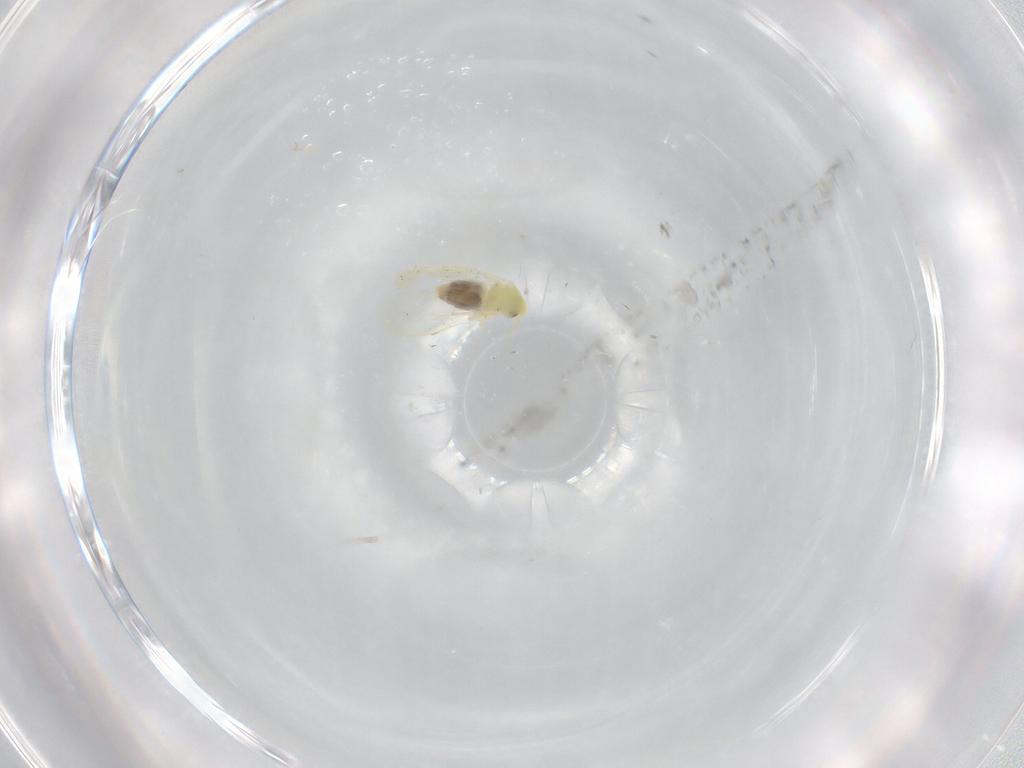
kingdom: Animalia
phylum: Arthropoda
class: Insecta
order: Hemiptera
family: Aleyrodidae
